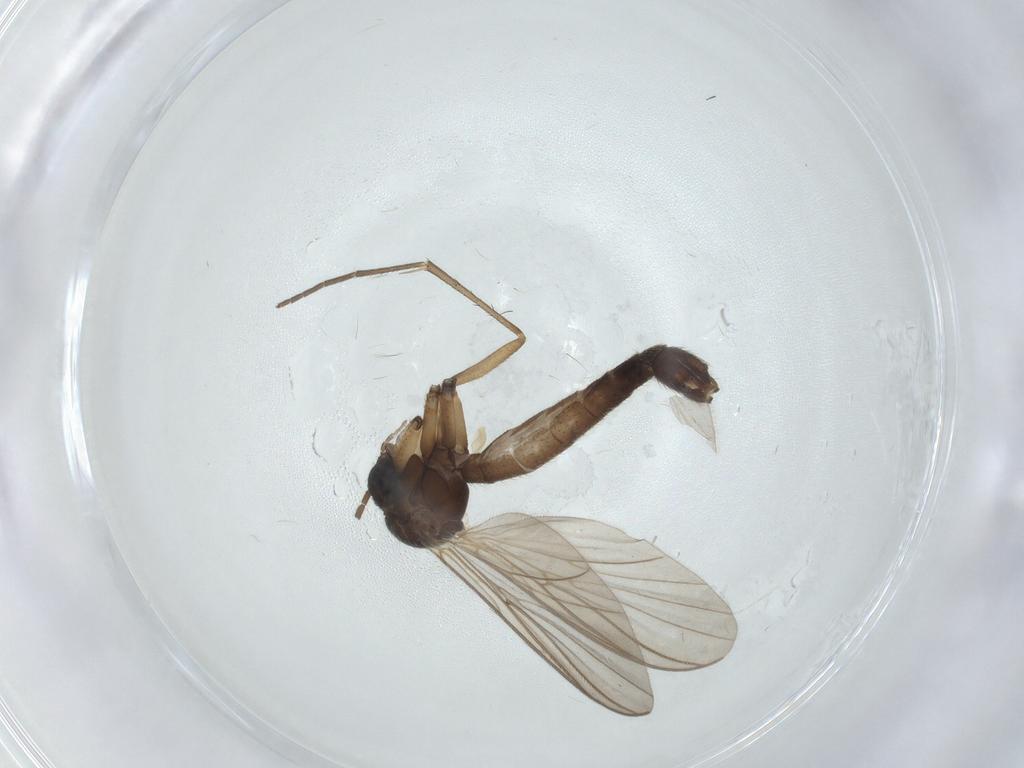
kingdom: Animalia
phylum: Arthropoda
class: Insecta
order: Diptera
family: Mycetophilidae
